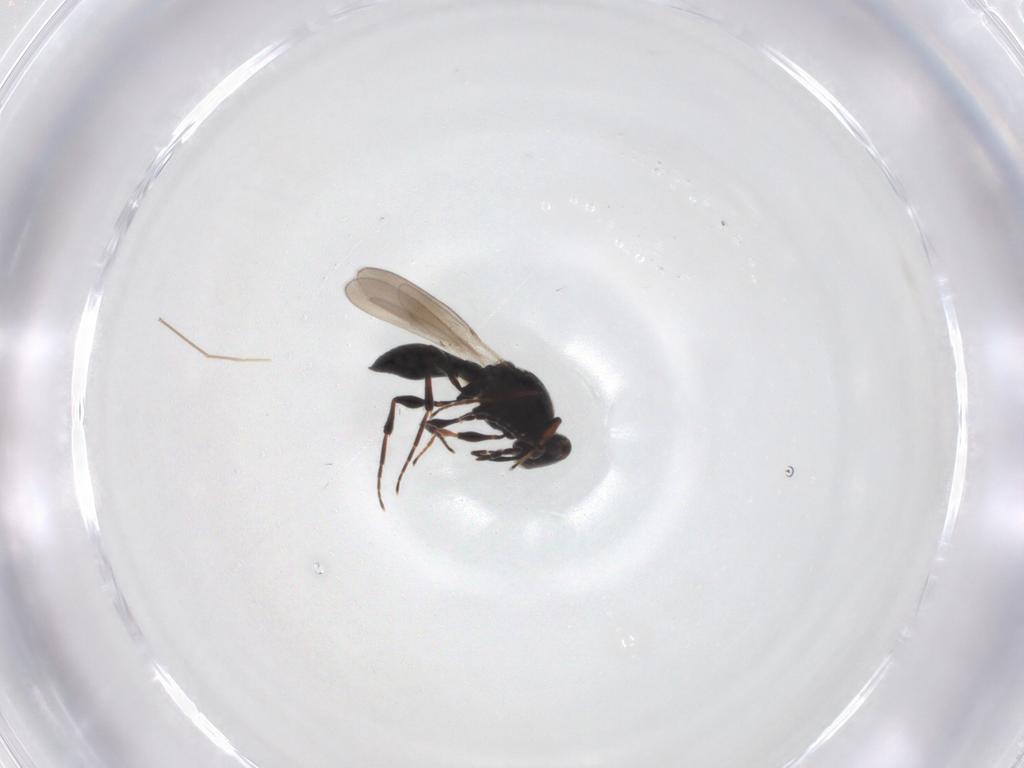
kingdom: Animalia
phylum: Arthropoda
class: Insecta
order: Hymenoptera
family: Platygastridae
